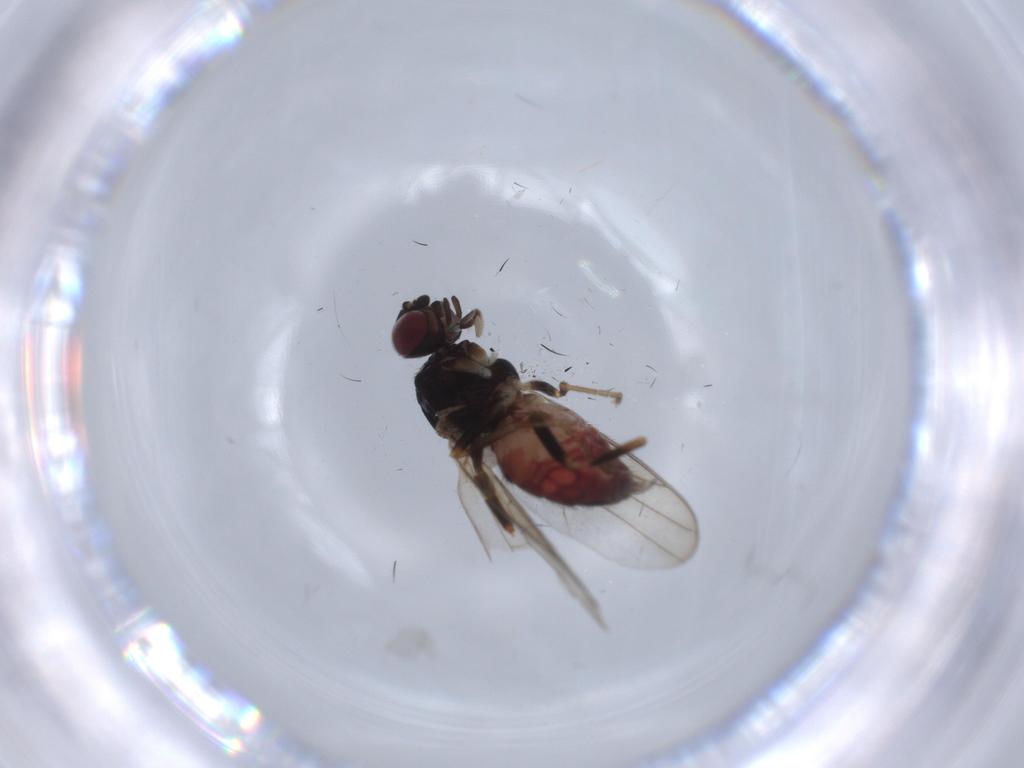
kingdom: Animalia
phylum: Arthropoda
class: Insecta
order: Diptera
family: Chloropidae
